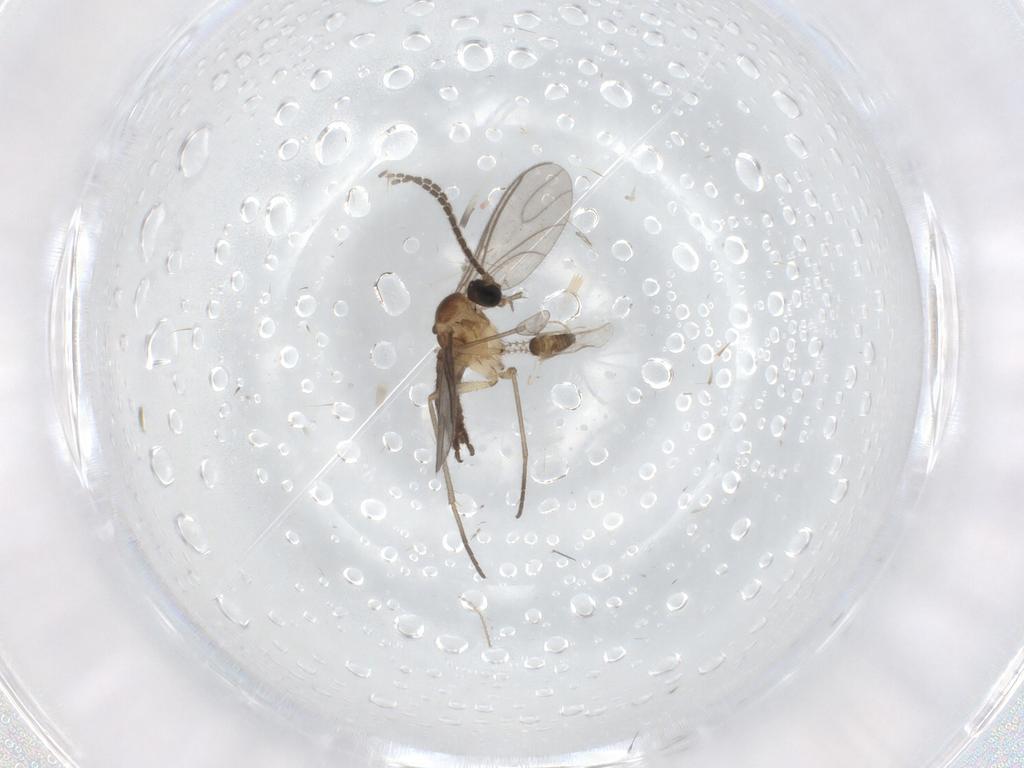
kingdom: Animalia
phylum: Arthropoda
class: Insecta
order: Diptera
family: Sciaridae
